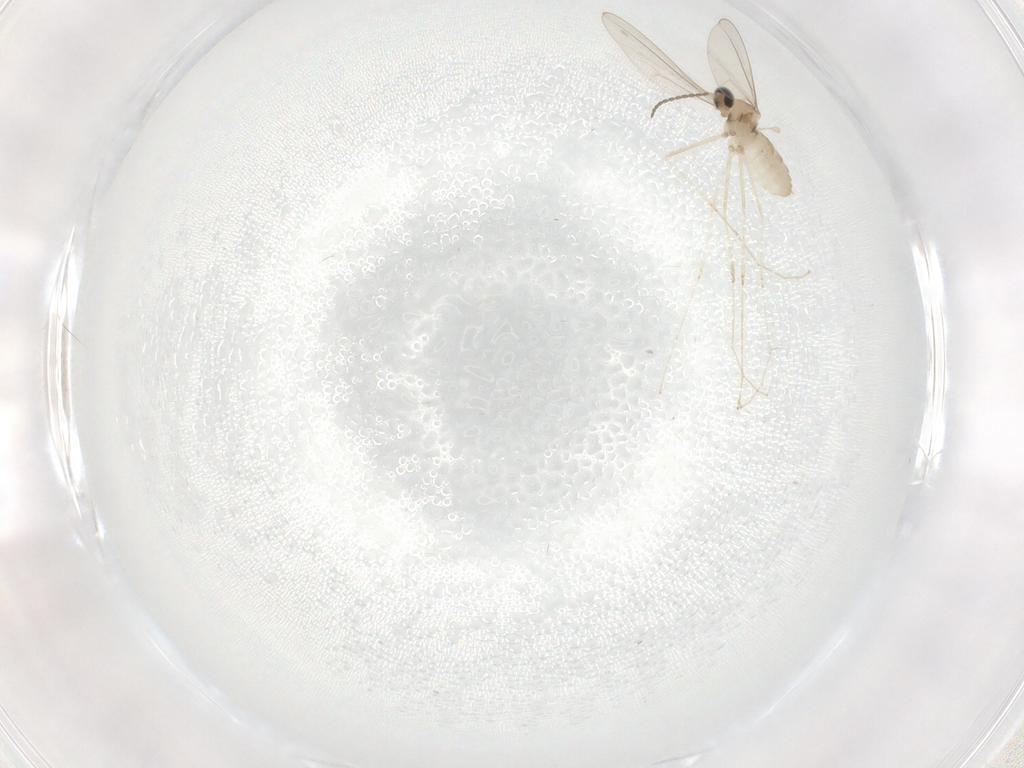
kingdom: Animalia
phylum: Arthropoda
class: Insecta
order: Diptera
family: Cecidomyiidae
